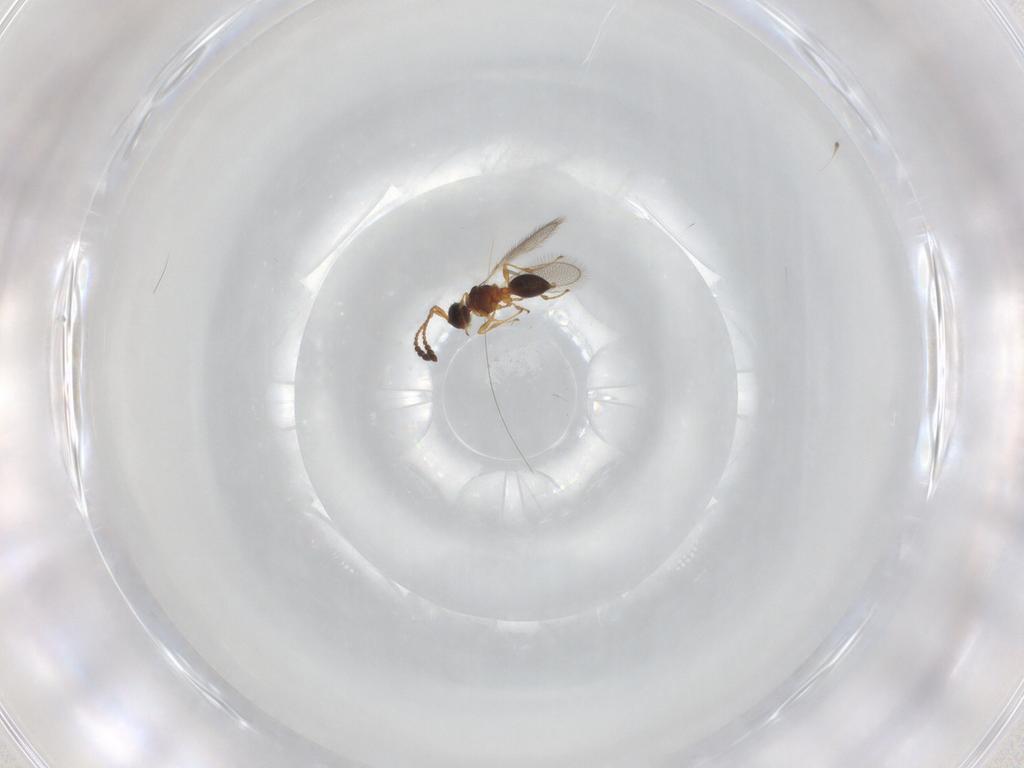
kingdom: Animalia
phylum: Arthropoda
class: Insecta
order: Hymenoptera
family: Diapriidae
